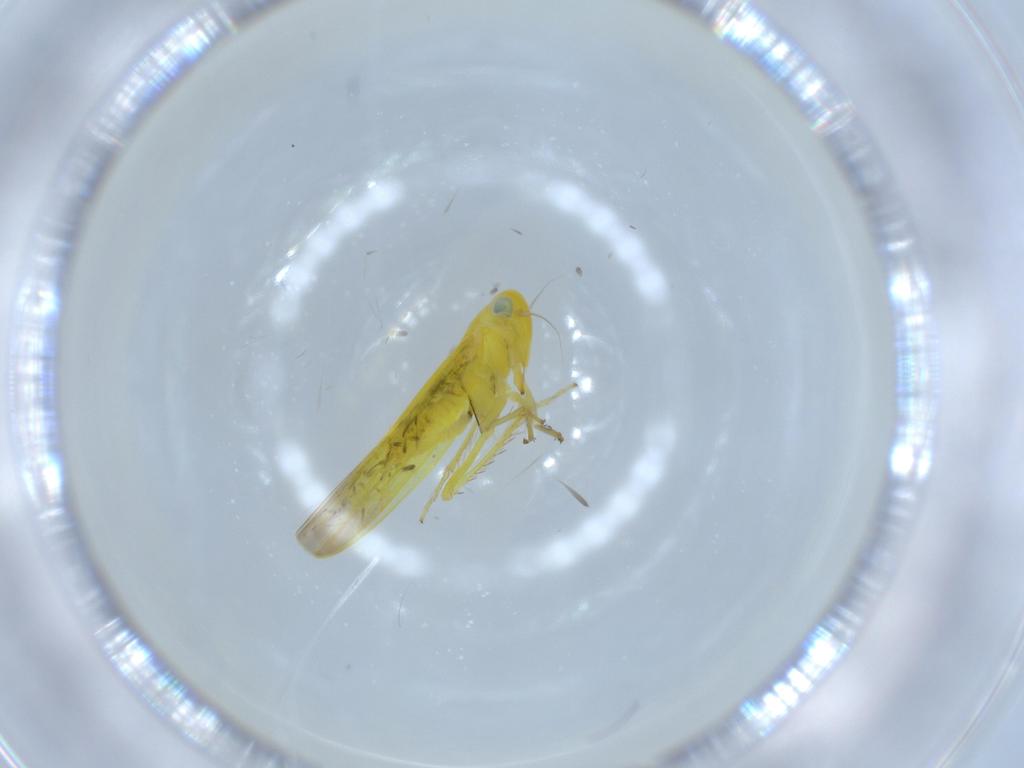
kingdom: Animalia
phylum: Arthropoda
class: Insecta
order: Hemiptera
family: Cicadellidae
